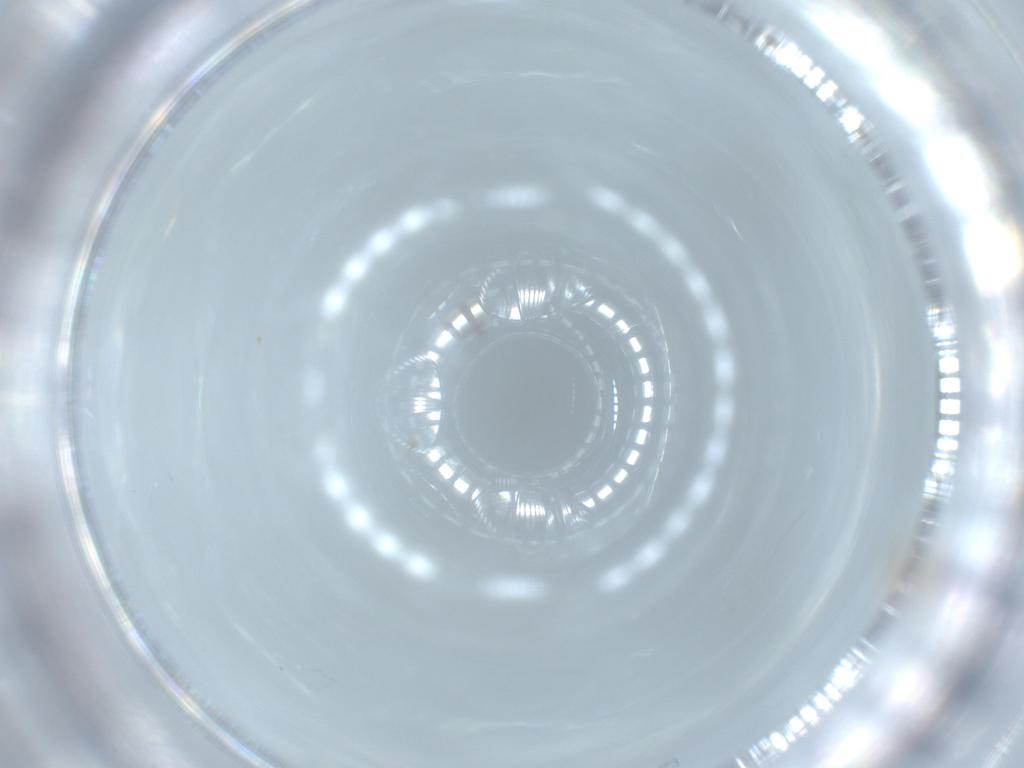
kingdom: Animalia
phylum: Arthropoda
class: Insecta
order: Hemiptera
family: Aleyrodidae
